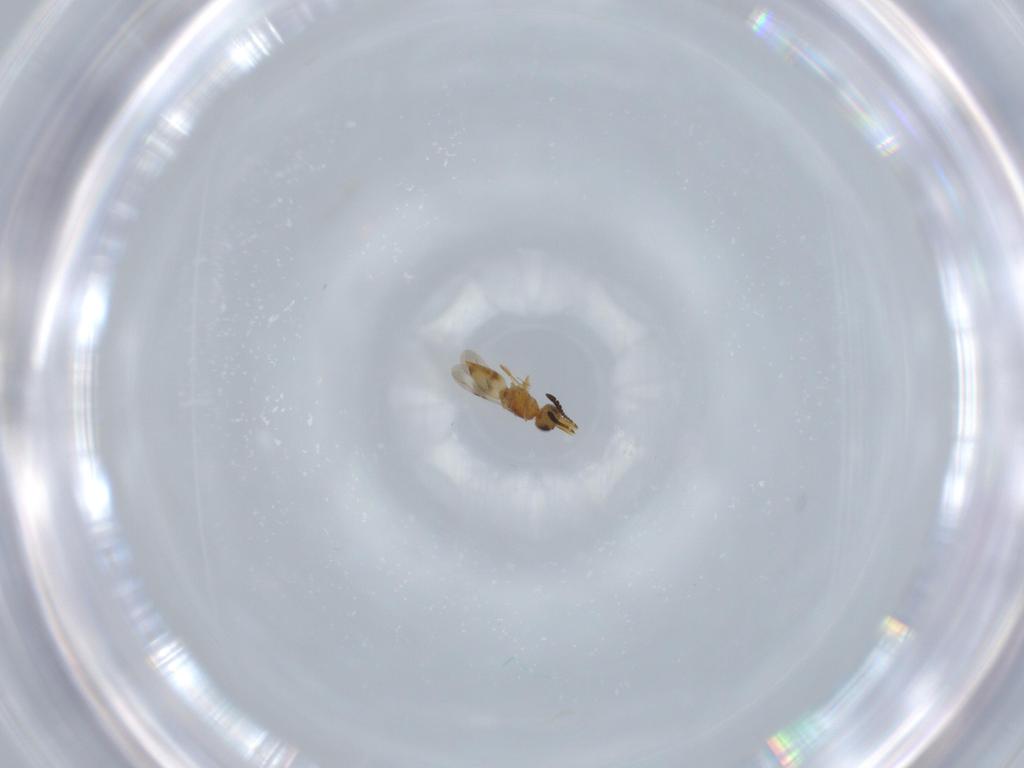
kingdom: Animalia
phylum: Arthropoda
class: Insecta
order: Hymenoptera
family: Ceraphronidae
